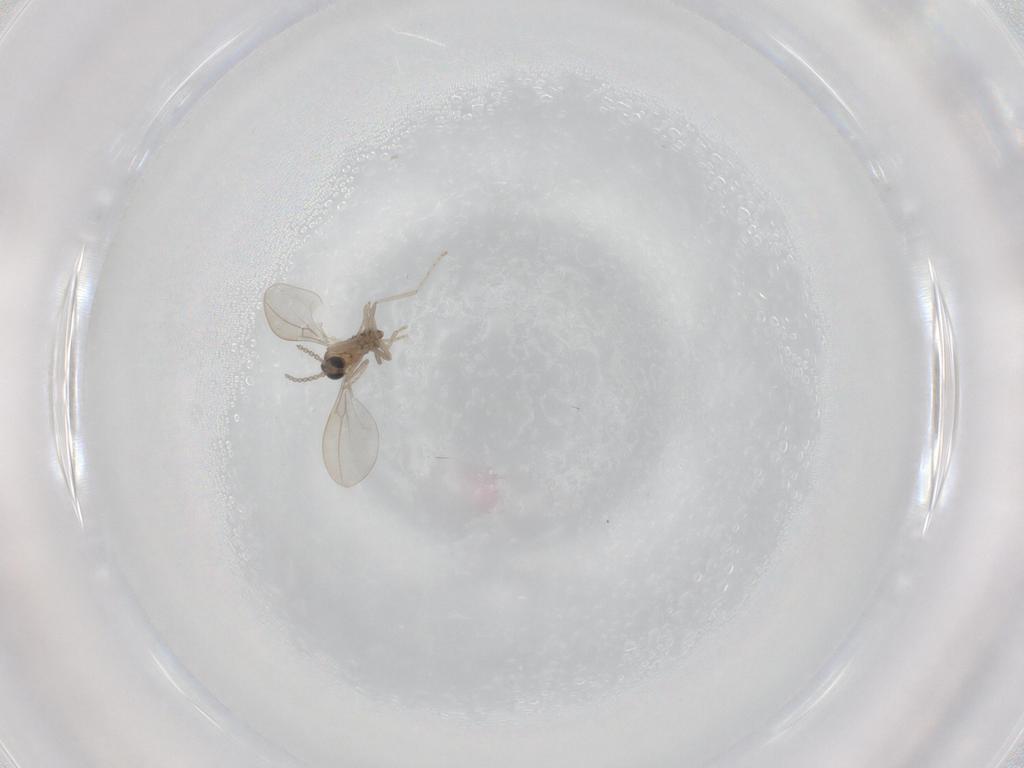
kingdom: Animalia
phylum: Arthropoda
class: Insecta
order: Diptera
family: Cecidomyiidae
